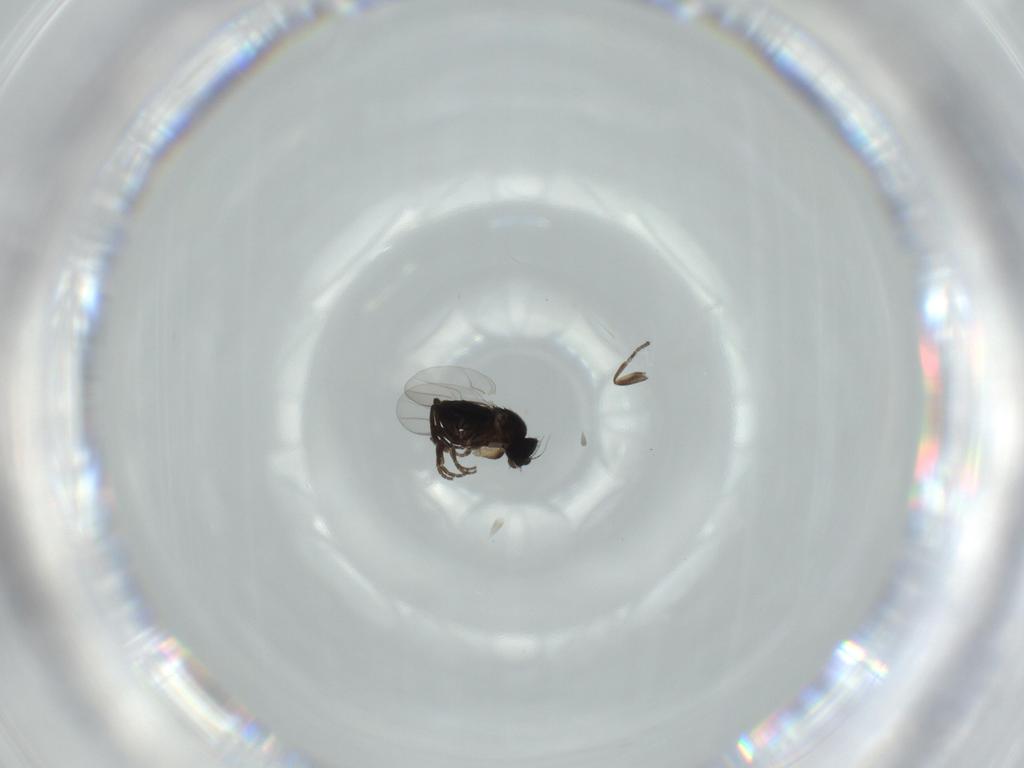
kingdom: Animalia
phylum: Arthropoda
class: Insecta
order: Diptera
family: Phoridae
